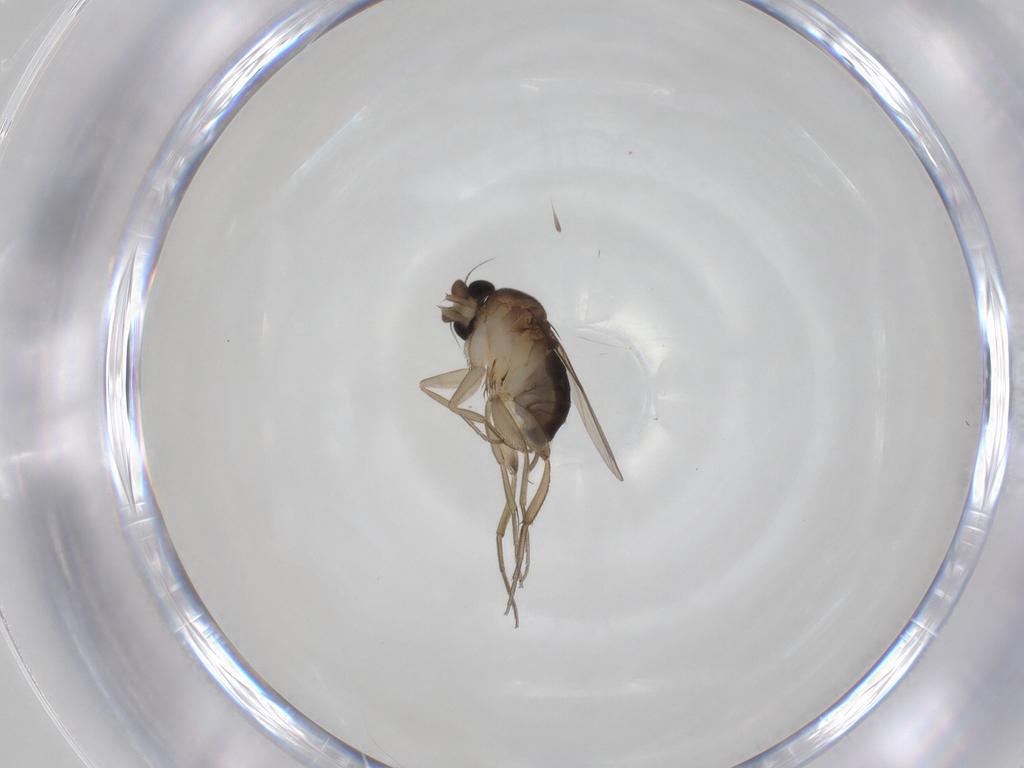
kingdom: Animalia
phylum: Arthropoda
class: Insecta
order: Diptera
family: Phoridae
